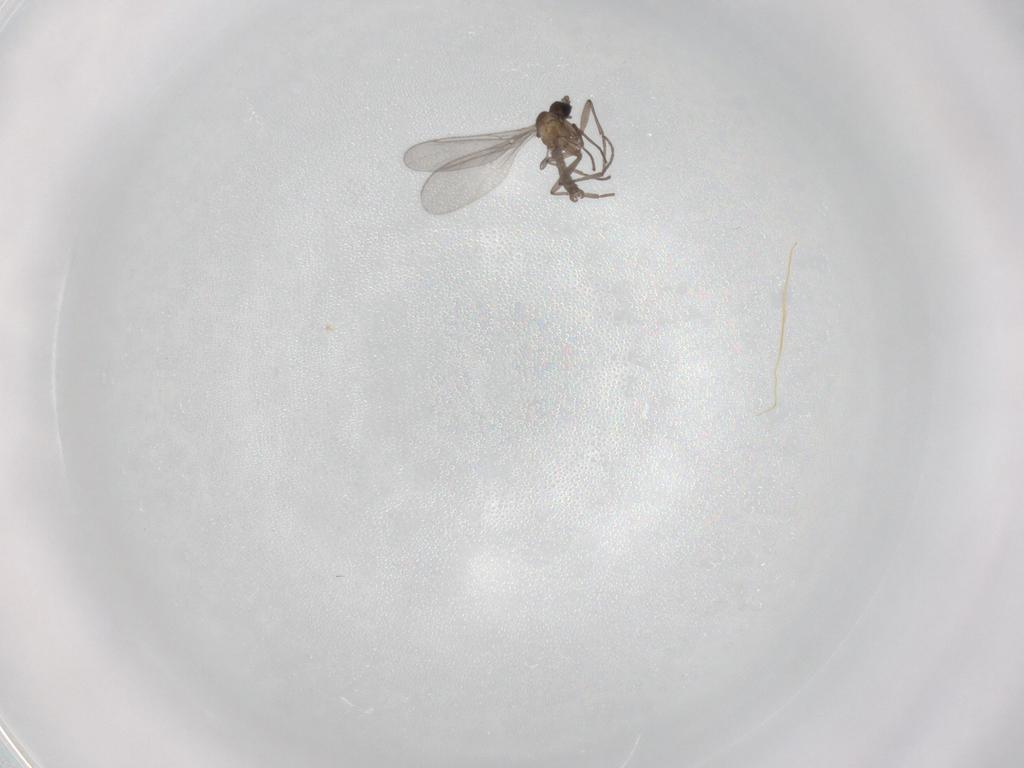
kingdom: Animalia
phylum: Arthropoda
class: Insecta
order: Diptera
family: Sciaridae
